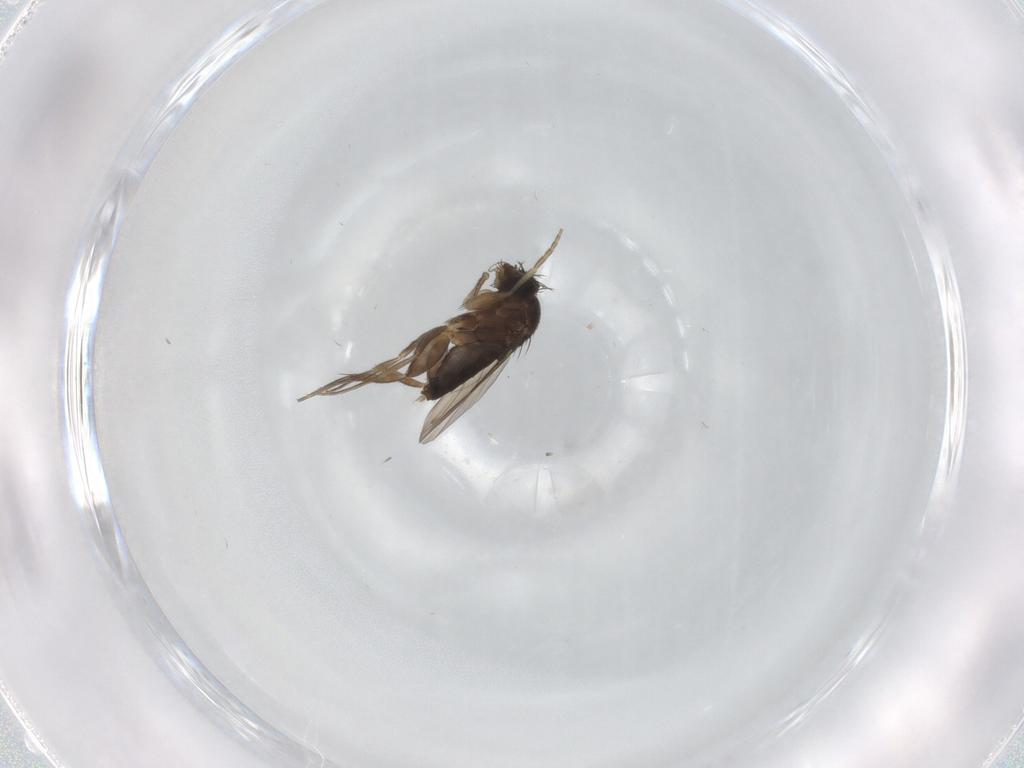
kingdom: Animalia
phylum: Arthropoda
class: Insecta
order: Diptera
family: Phoridae
